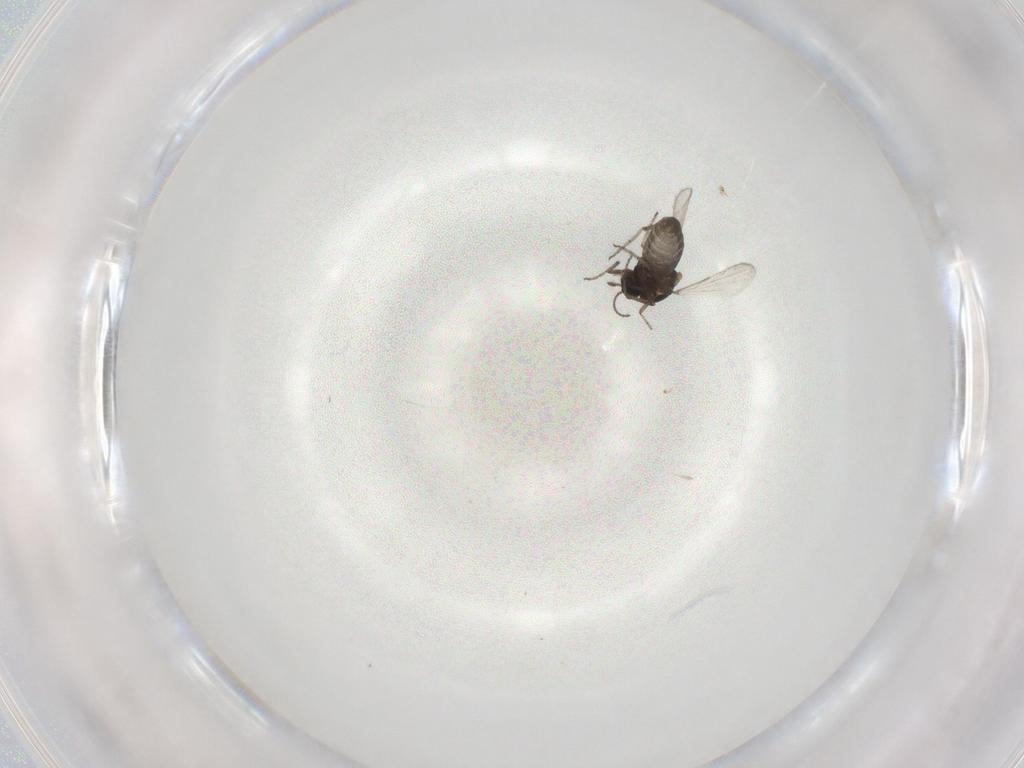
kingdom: Animalia
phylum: Arthropoda
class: Insecta
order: Diptera
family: Ceratopogonidae
